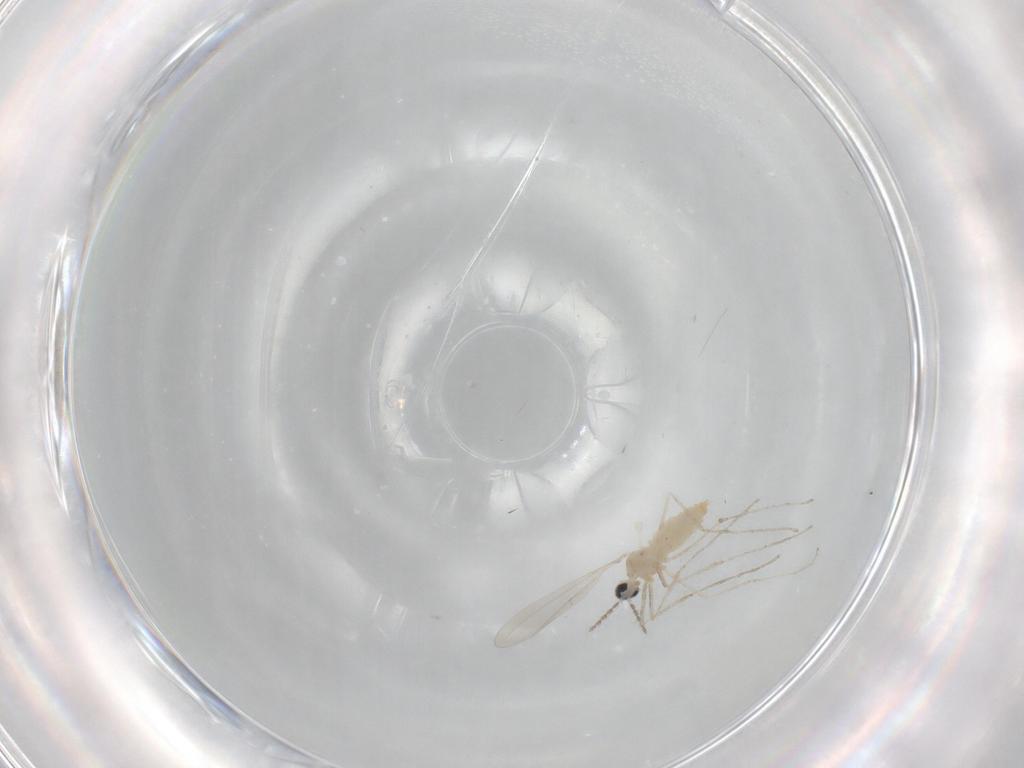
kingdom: Animalia
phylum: Arthropoda
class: Insecta
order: Diptera
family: Cecidomyiidae
